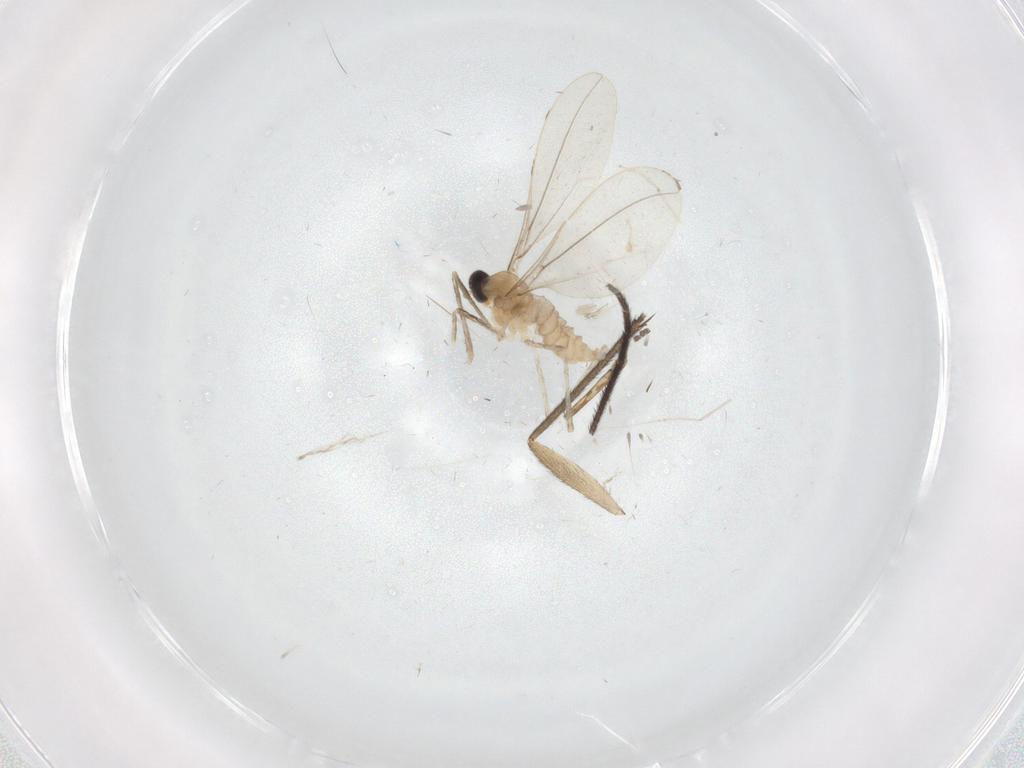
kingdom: Animalia
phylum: Arthropoda
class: Insecta
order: Diptera
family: Cecidomyiidae
